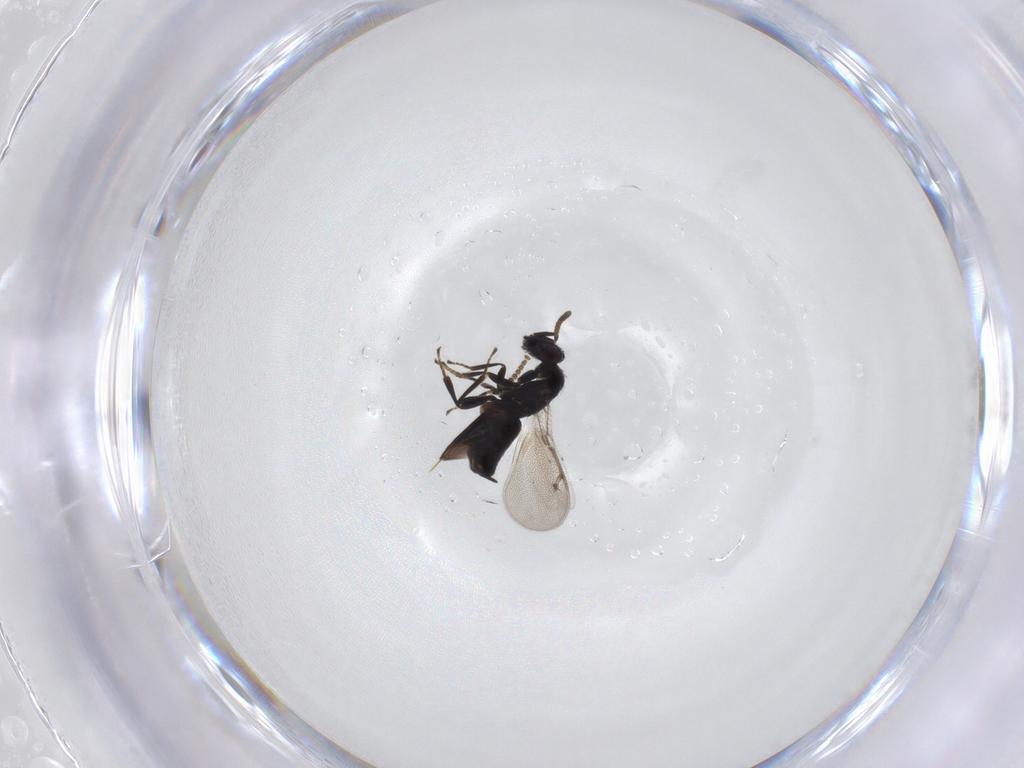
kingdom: Animalia
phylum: Arthropoda
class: Insecta
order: Hymenoptera
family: Pirenidae
